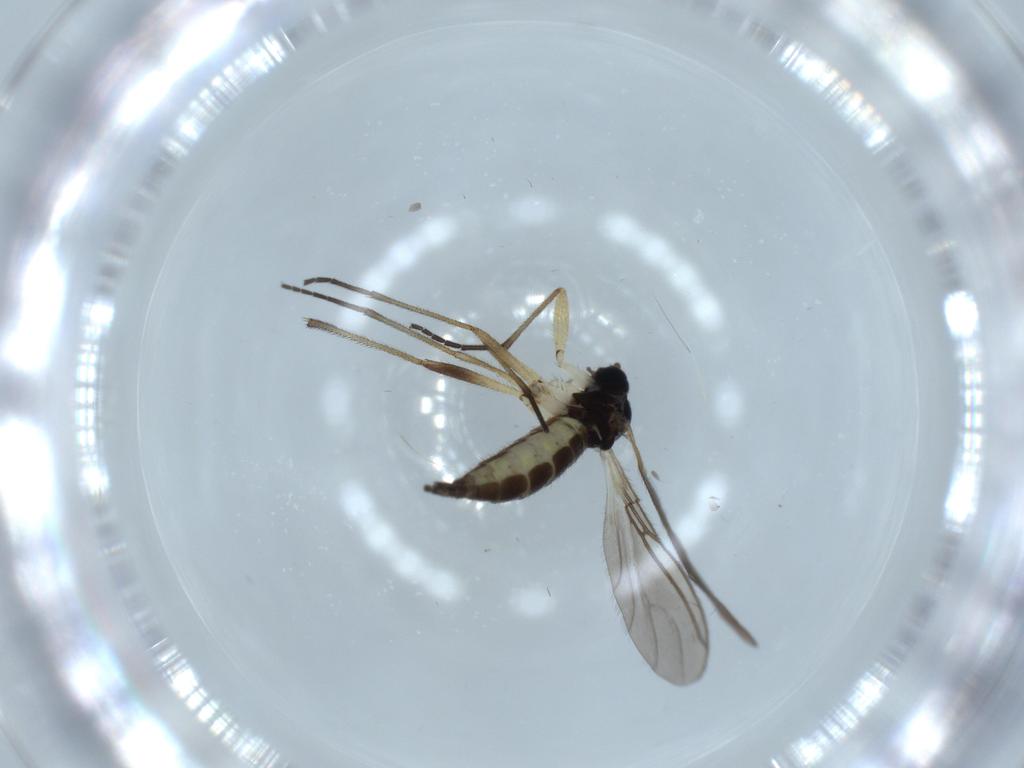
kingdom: Animalia
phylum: Arthropoda
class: Insecta
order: Diptera
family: Sciaridae
